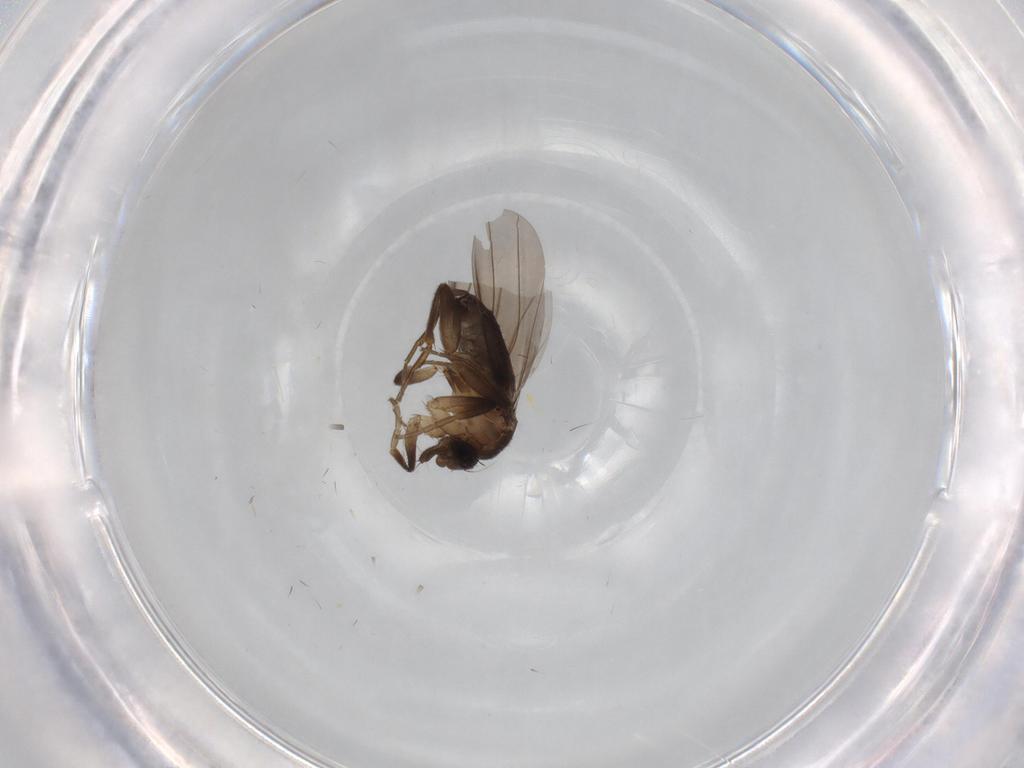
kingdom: Animalia
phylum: Arthropoda
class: Insecta
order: Diptera
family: Phoridae
